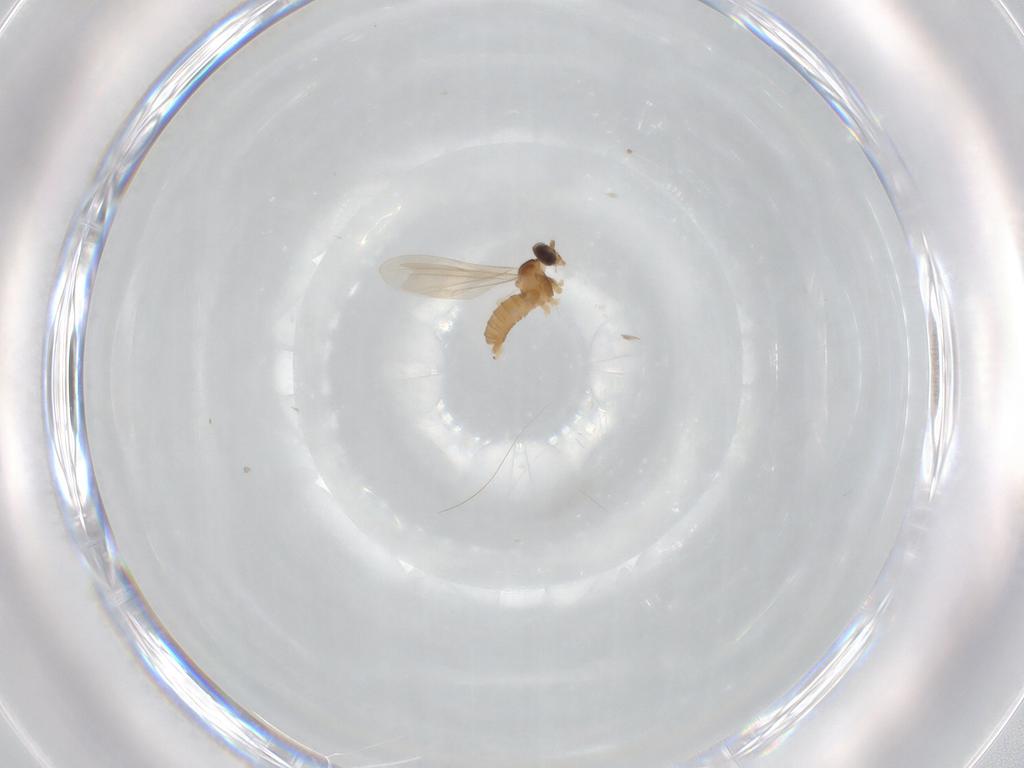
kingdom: Animalia
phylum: Arthropoda
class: Insecta
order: Diptera
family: Cecidomyiidae
